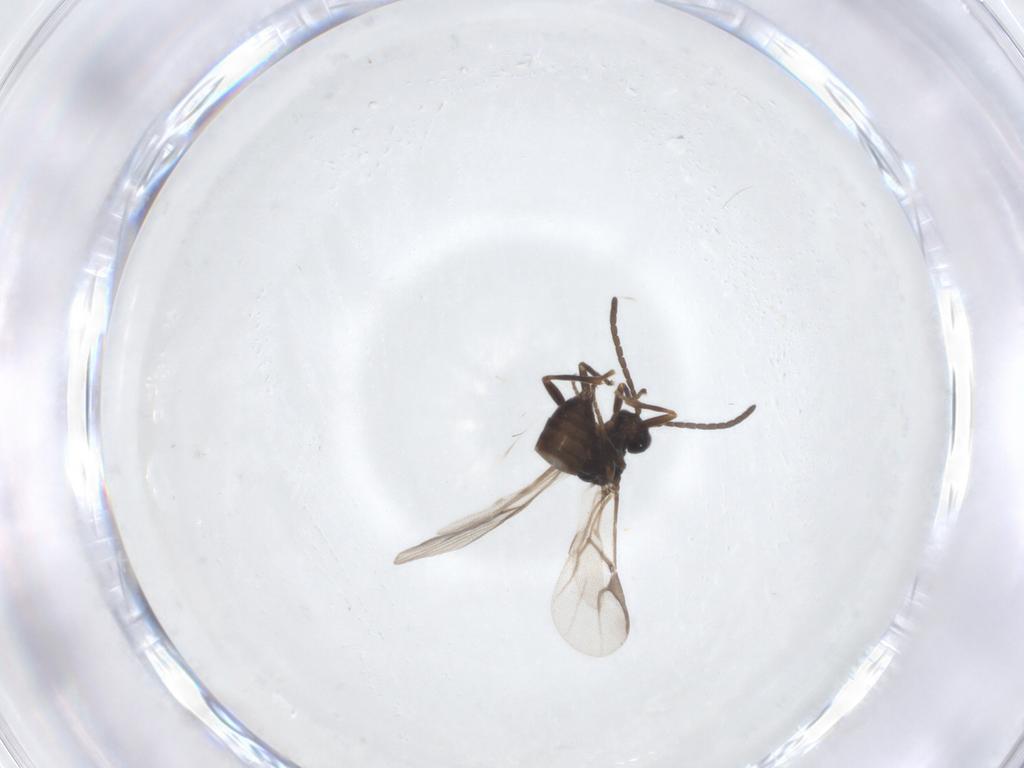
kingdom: Animalia
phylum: Arthropoda
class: Insecta
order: Hymenoptera
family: Braconidae
